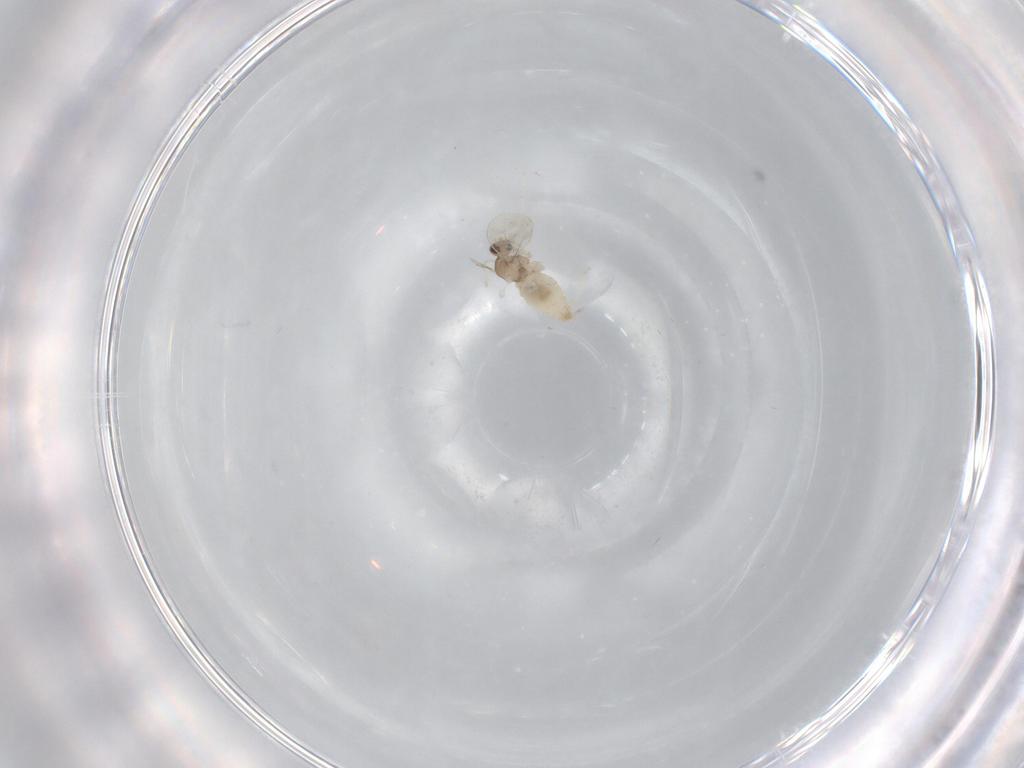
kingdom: Animalia
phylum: Arthropoda
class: Insecta
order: Diptera
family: Cecidomyiidae
